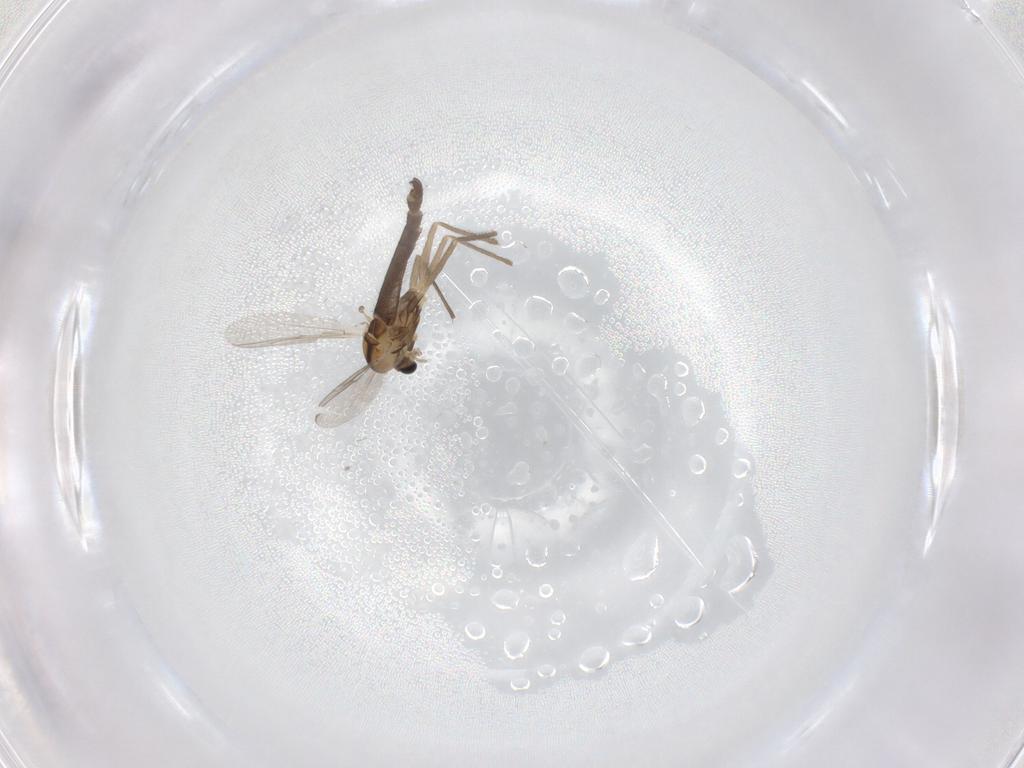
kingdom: Animalia
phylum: Arthropoda
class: Insecta
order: Diptera
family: Chironomidae
